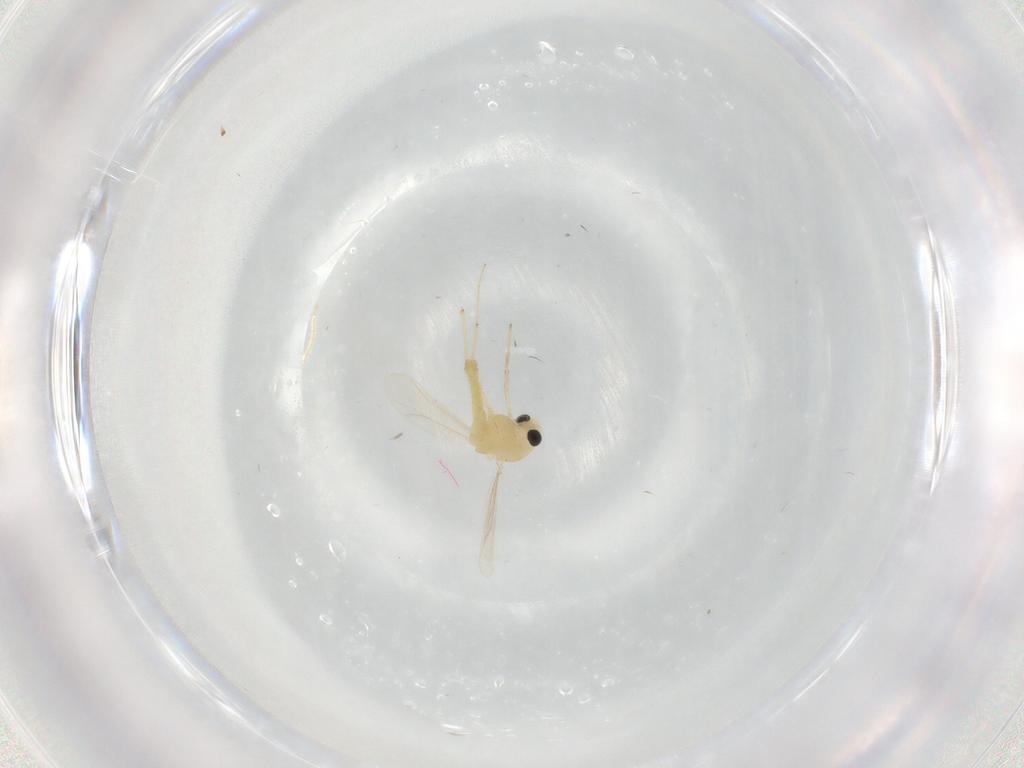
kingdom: Animalia
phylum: Arthropoda
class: Insecta
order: Diptera
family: Chironomidae
